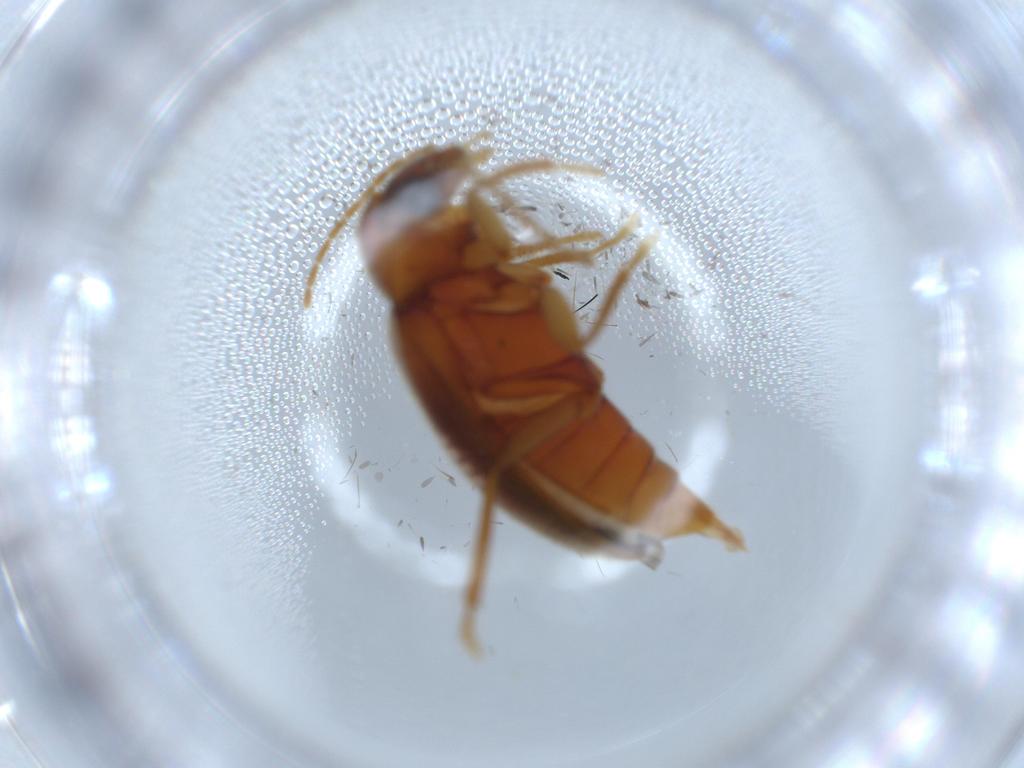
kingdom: Animalia
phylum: Arthropoda
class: Insecta
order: Coleoptera
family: Ptilodactylidae
